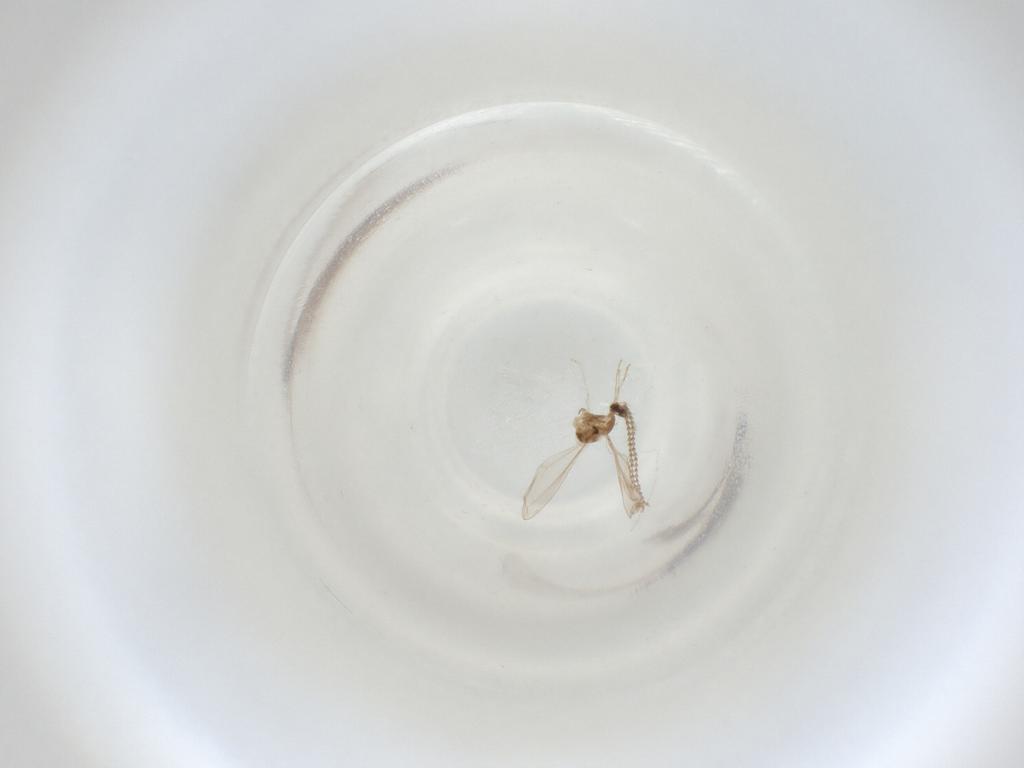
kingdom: Animalia
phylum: Arthropoda
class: Insecta
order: Diptera
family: Cecidomyiidae
